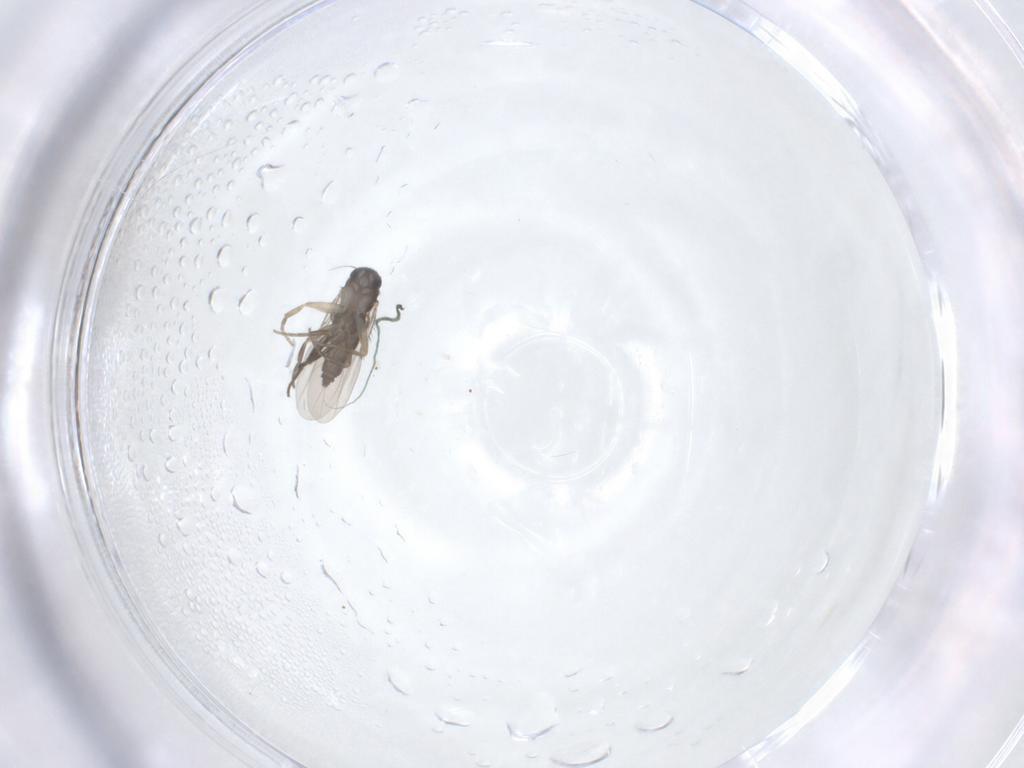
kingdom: Animalia
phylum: Arthropoda
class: Insecta
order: Diptera
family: Phoridae
